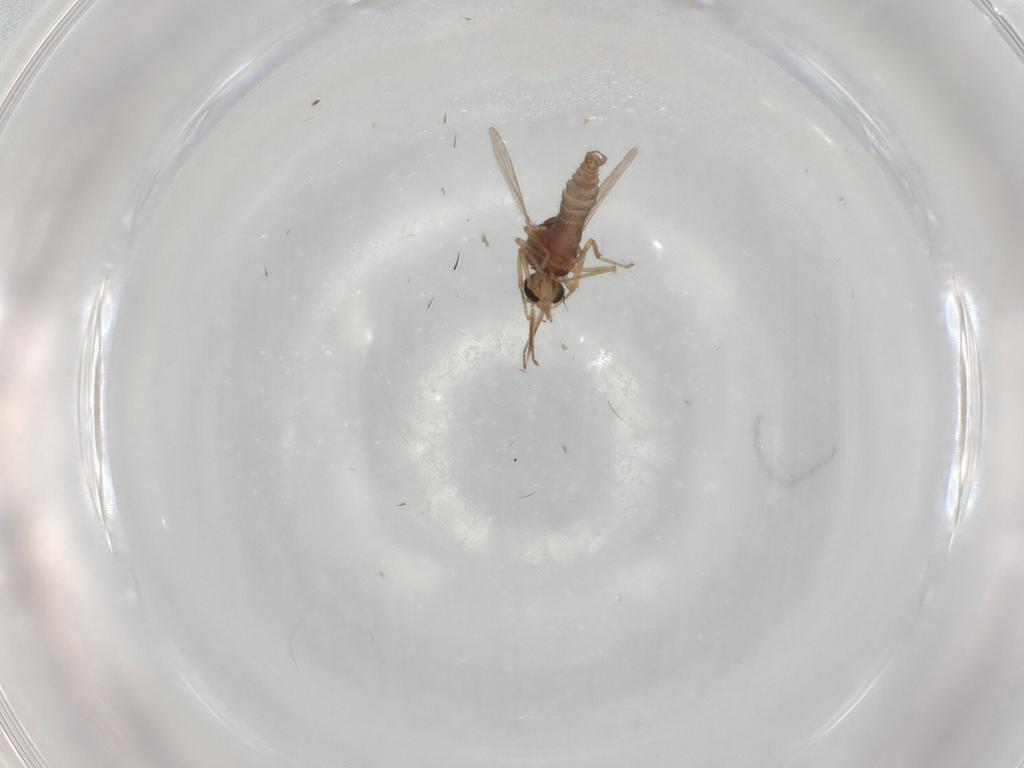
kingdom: Animalia
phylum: Arthropoda
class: Insecta
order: Diptera
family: Ceratopogonidae
